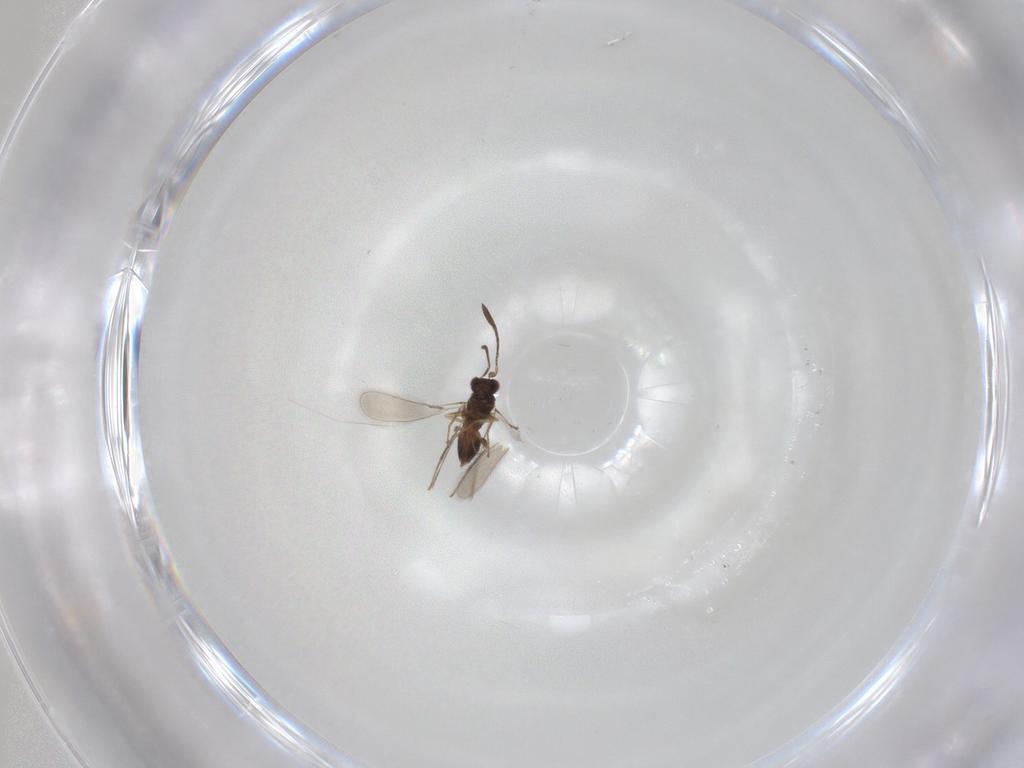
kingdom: Animalia
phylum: Arthropoda
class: Insecta
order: Hymenoptera
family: Mymaridae
